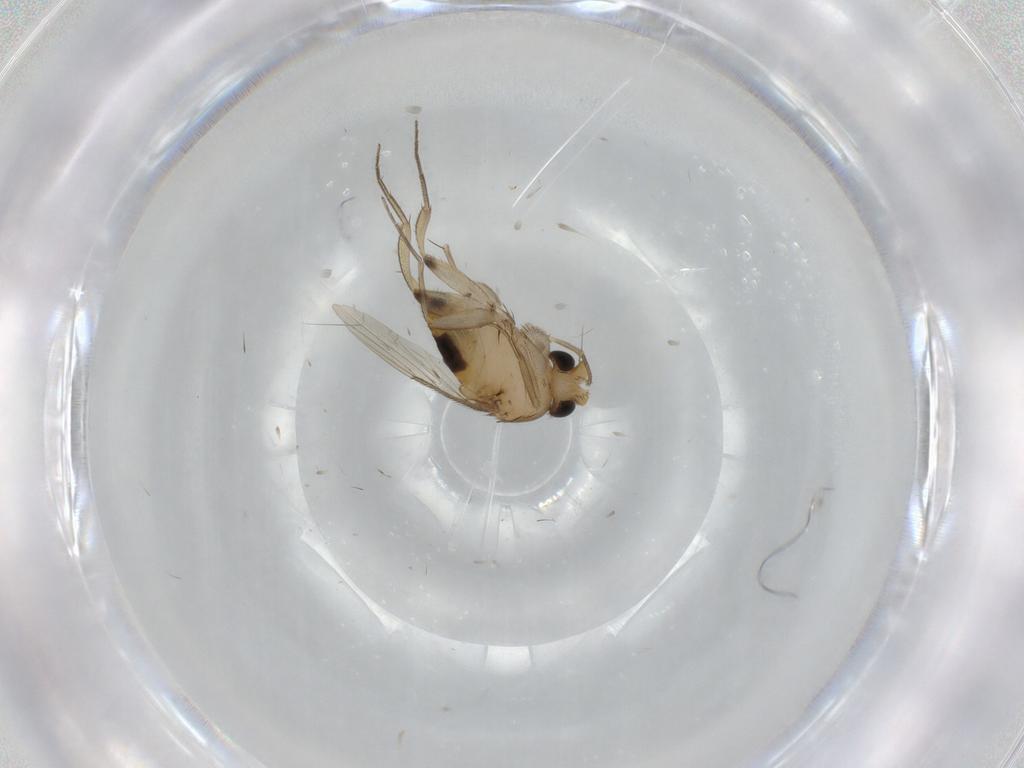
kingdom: Animalia
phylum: Arthropoda
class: Insecta
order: Diptera
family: Phoridae
